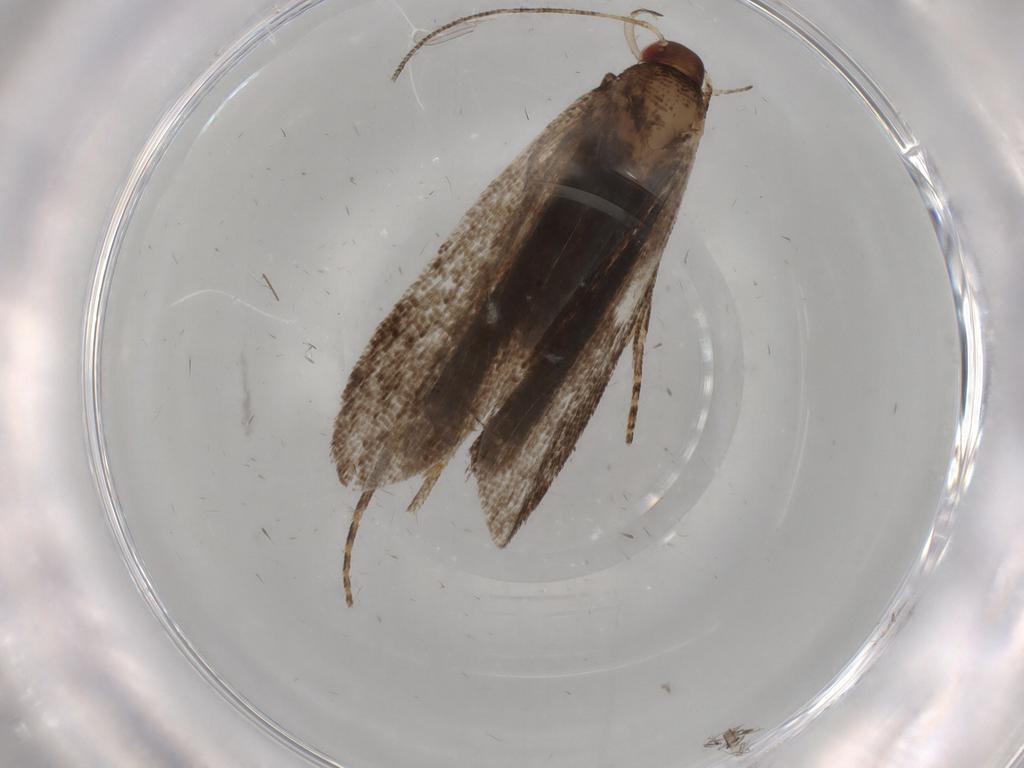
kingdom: Animalia
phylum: Arthropoda
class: Insecta
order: Lepidoptera
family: Gelechiidae
